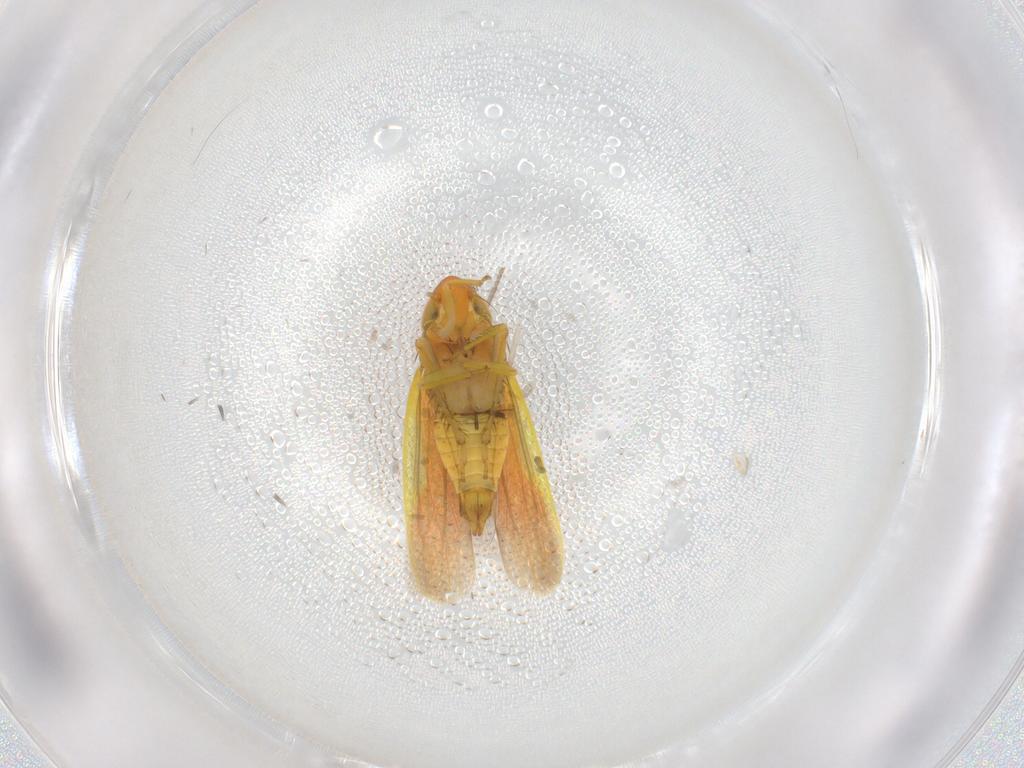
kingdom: Animalia
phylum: Arthropoda
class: Insecta
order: Hemiptera
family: Cicadellidae
